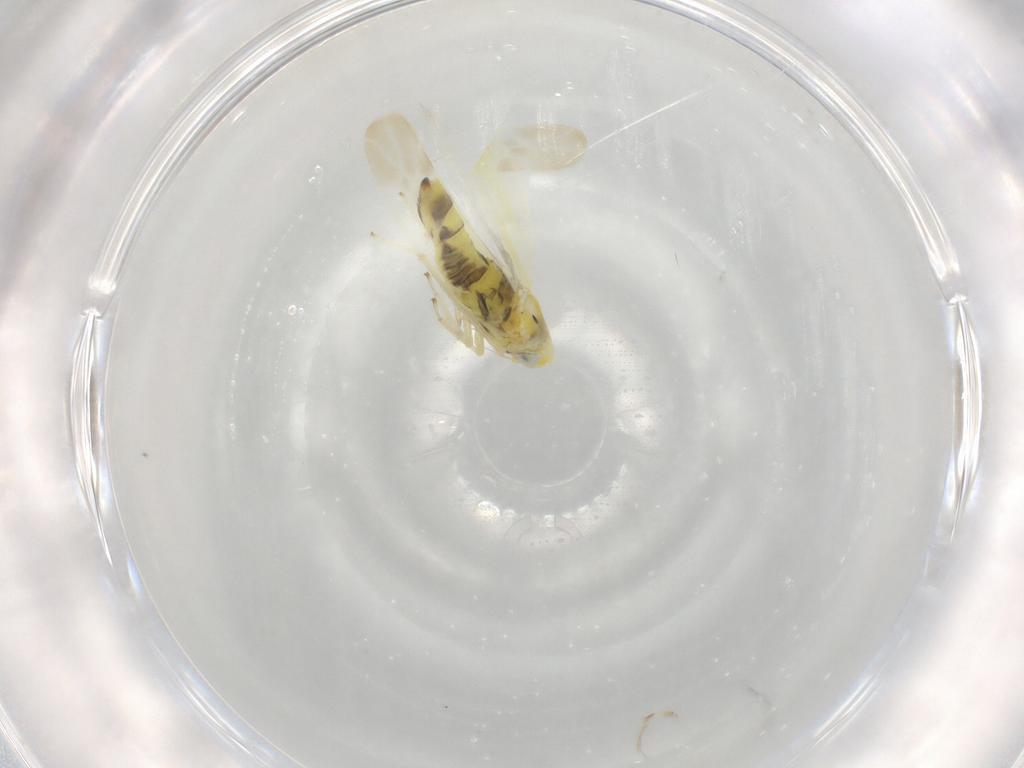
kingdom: Animalia
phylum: Arthropoda
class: Insecta
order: Hemiptera
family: Cicadellidae
